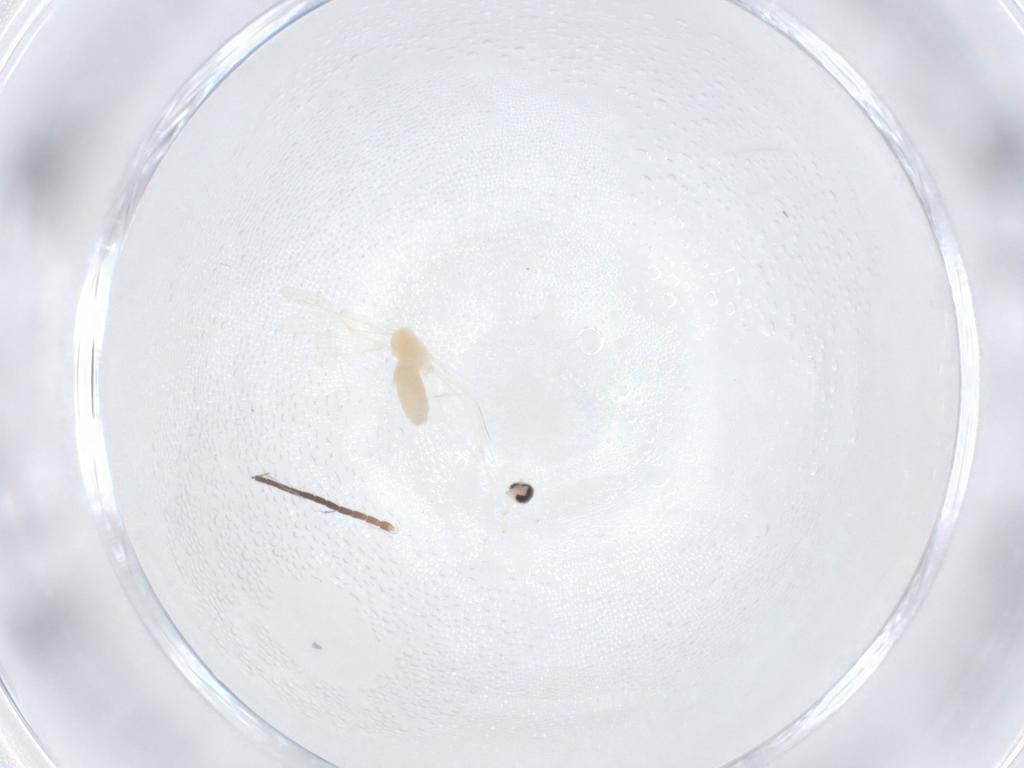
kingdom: Animalia
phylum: Arthropoda
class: Insecta
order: Diptera
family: Cecidomyiidae
